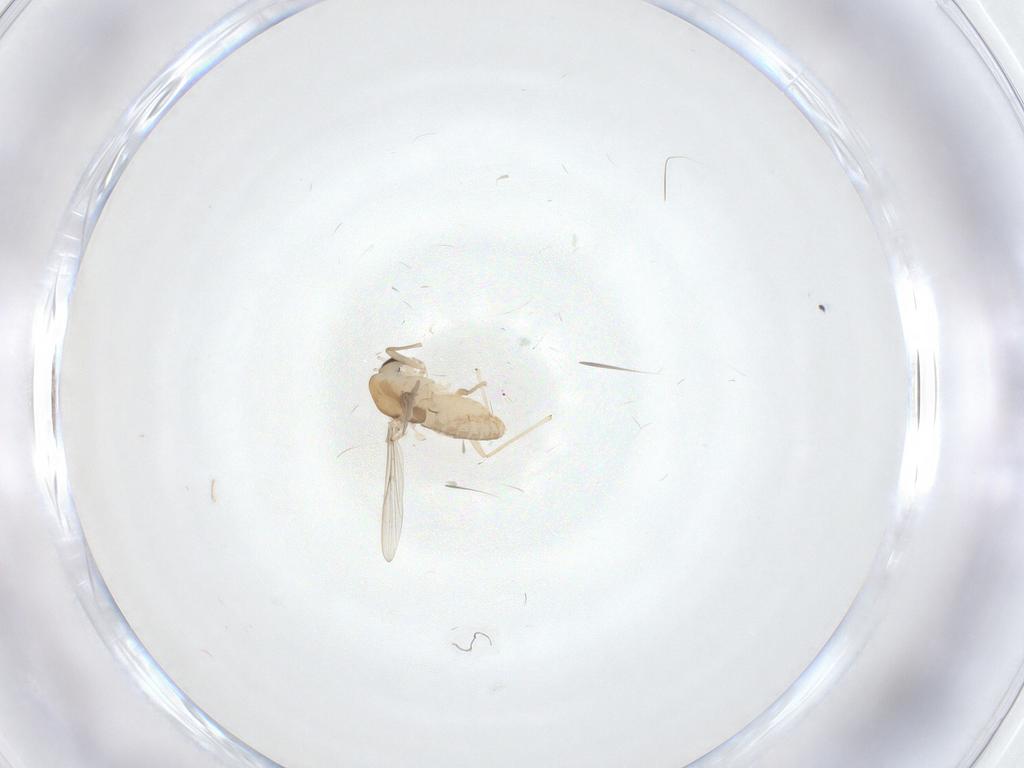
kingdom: Animalia
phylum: Arthropoda
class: Insecta
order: Diptera
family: Chironomidae
